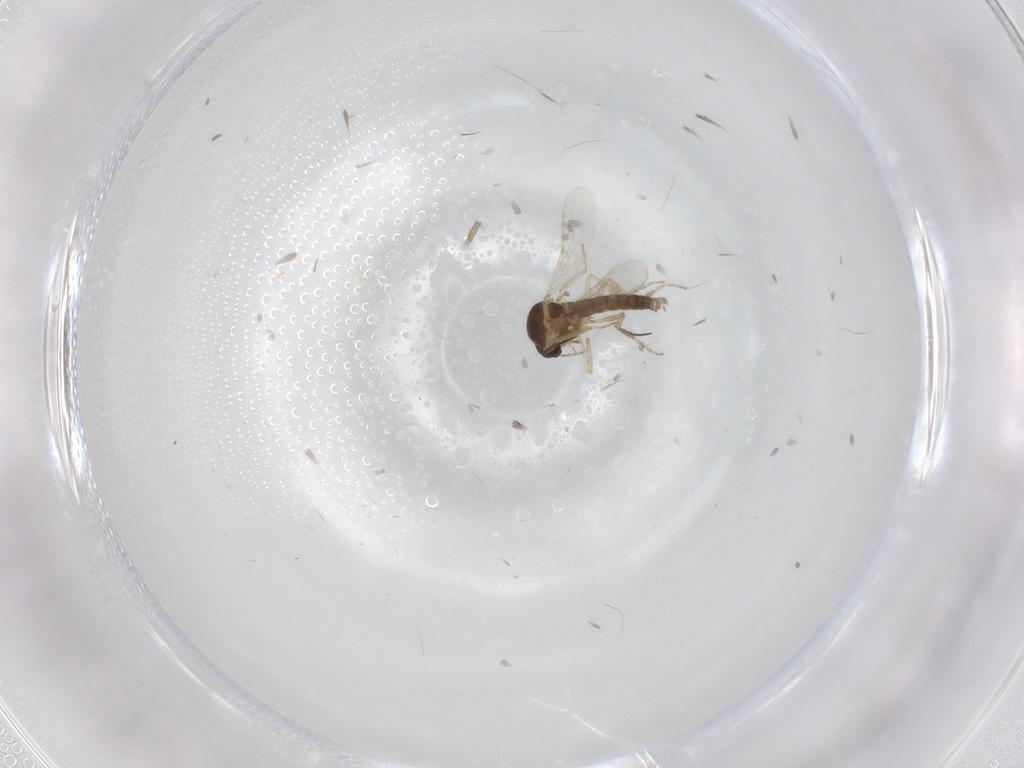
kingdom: Animalia
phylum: Arthropoda
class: Insecta
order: Diptera
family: Ceratopogonidae
